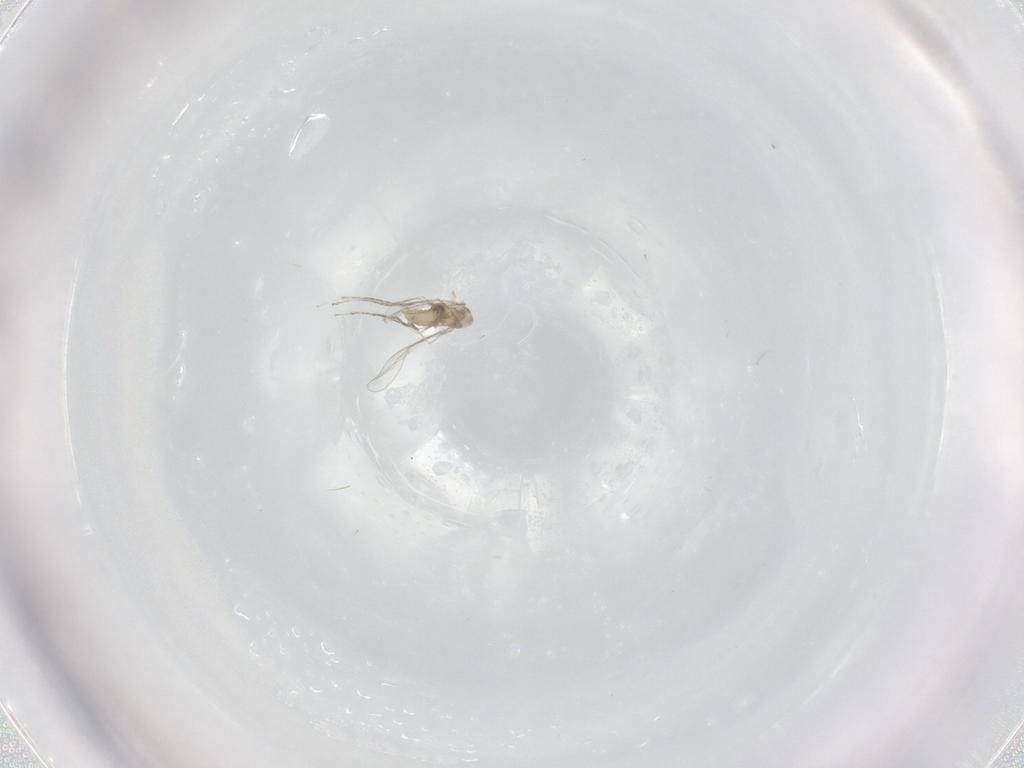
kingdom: Animalia
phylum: Arthropoda
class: Insecta
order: Diptera
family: Cecidomyiidae
